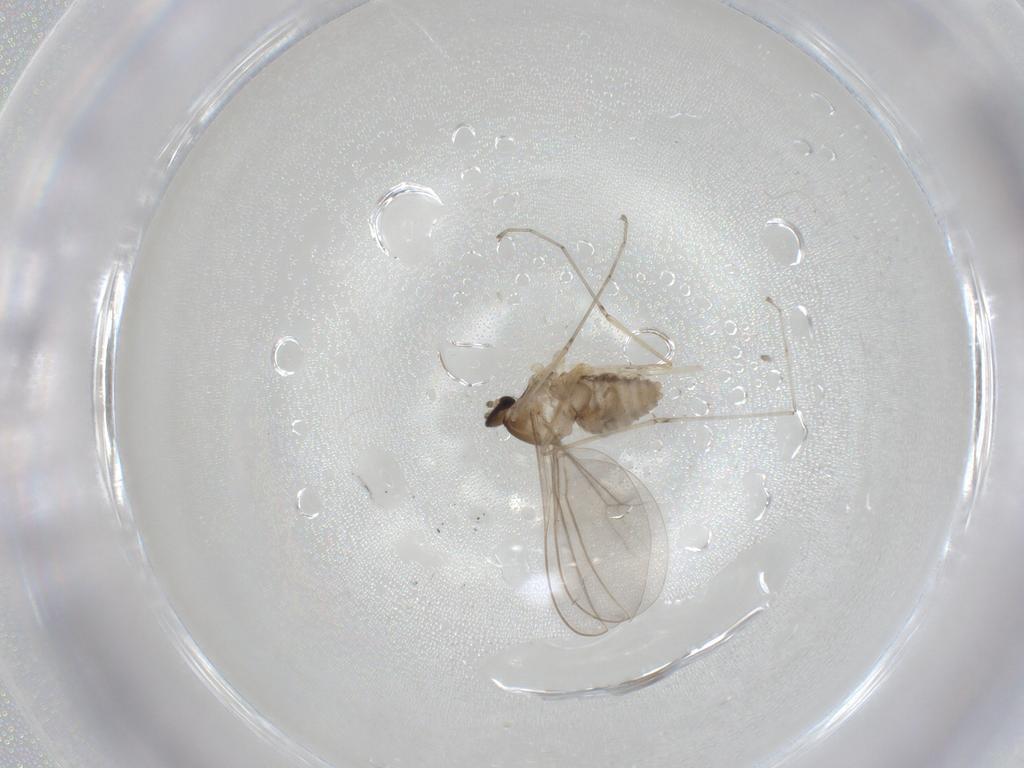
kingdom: Animalia
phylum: Arthropoda
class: Insecta
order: Diptera
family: Cecidomyiidae
